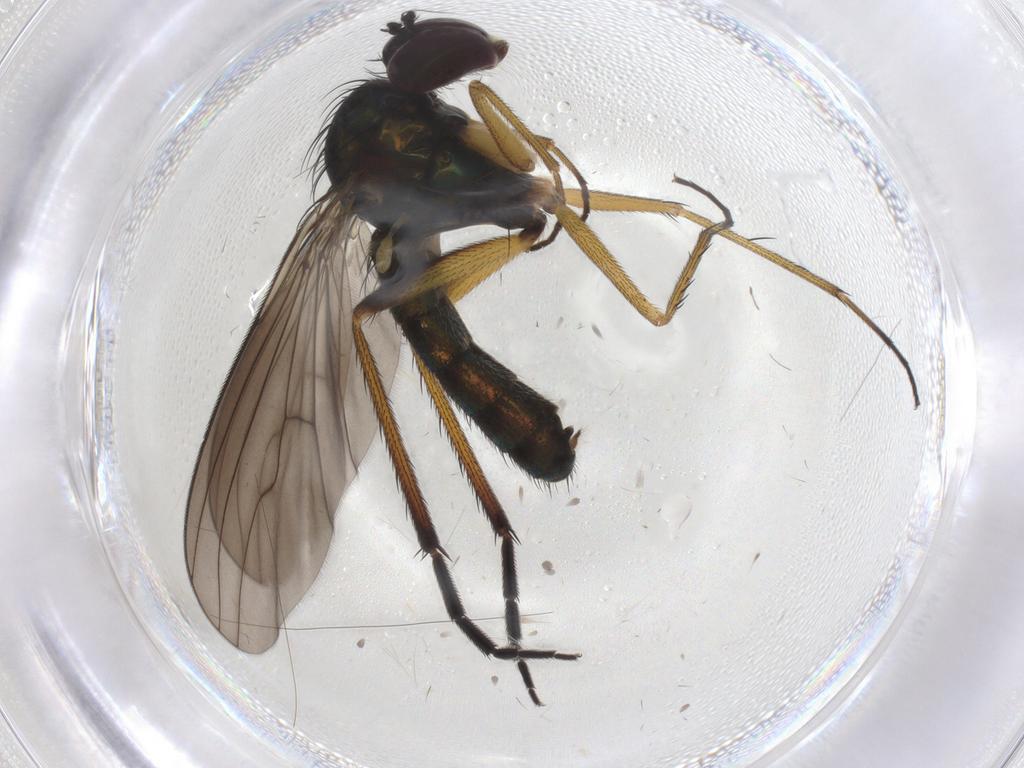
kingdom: Animalia
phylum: Arthropoda
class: Insecta
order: Diptera
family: Dolichopodidae
